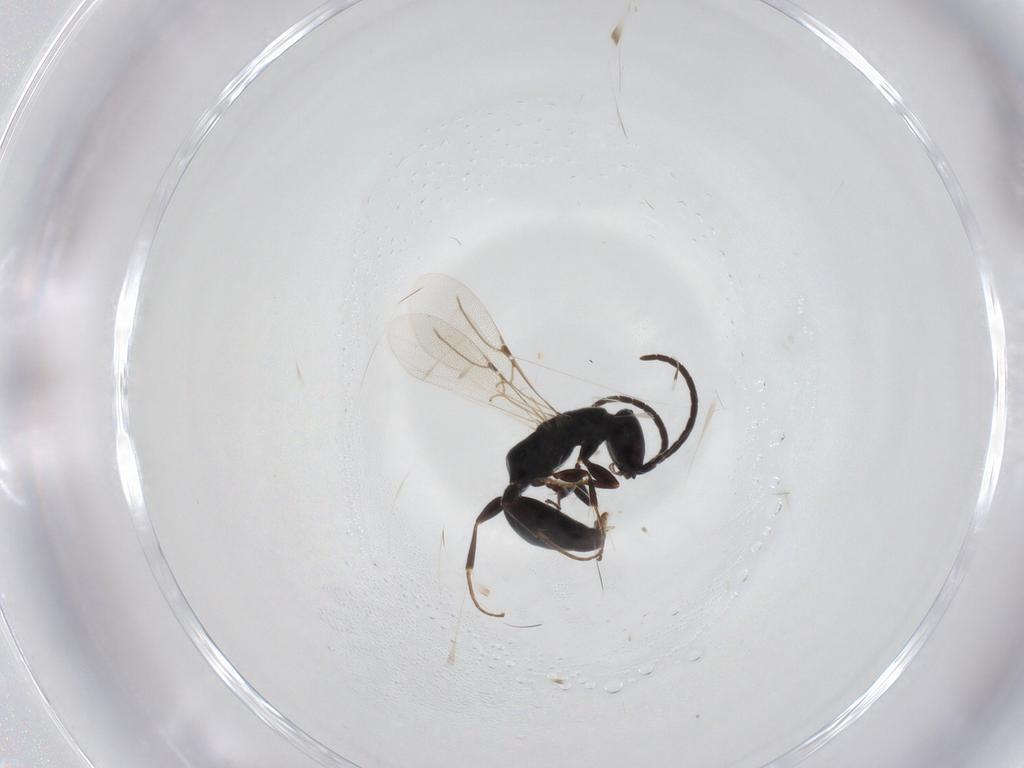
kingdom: Animalia
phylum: Arthropoda
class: Insecta
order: Hymenoptera
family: Bethylidae
